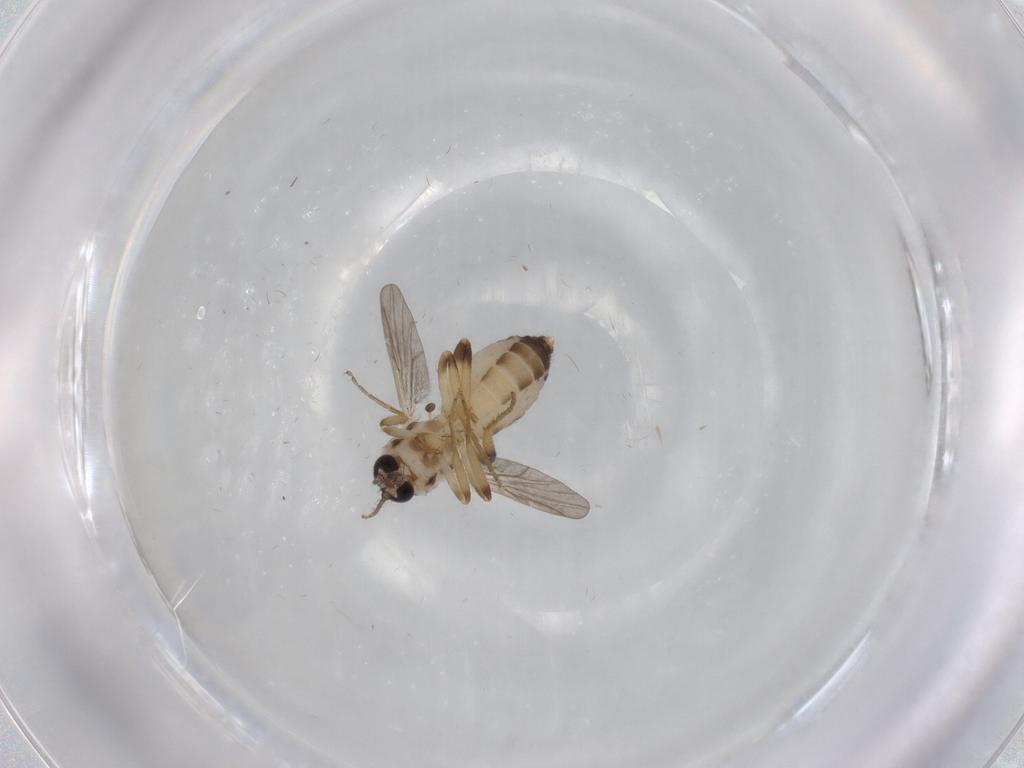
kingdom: Animalia
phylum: Arthropoda
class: Insecta
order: Diptera
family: Ceratopogonidae
